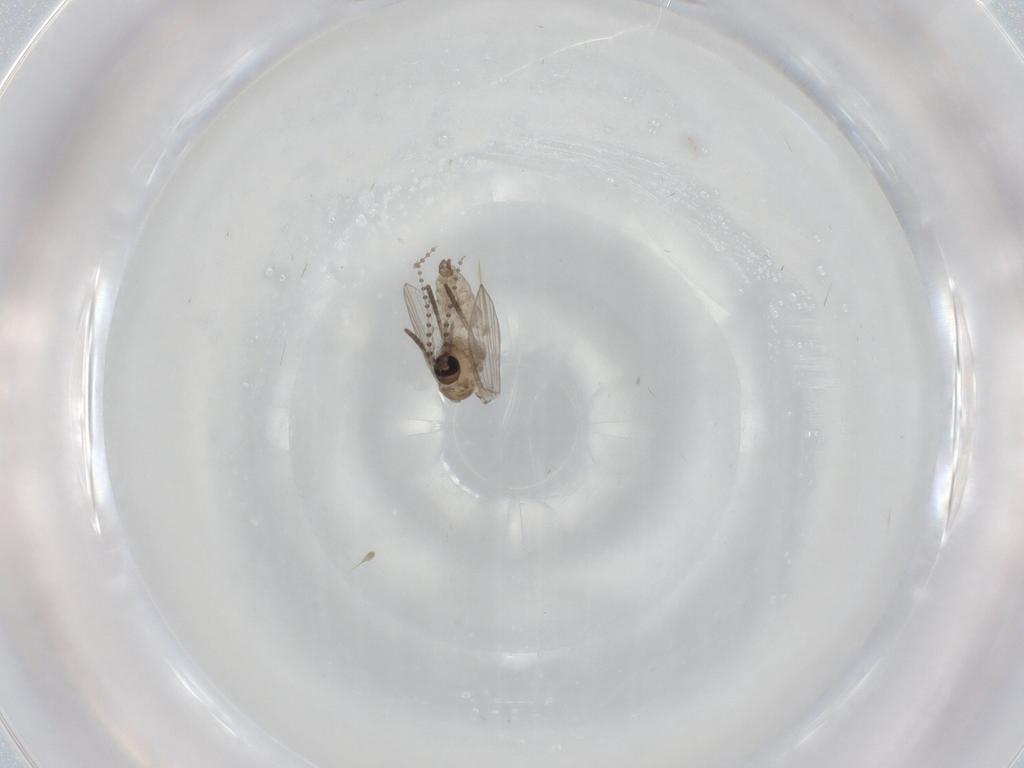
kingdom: Animalia
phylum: Arthropoda
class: Insecta
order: Diptera
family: Psychodidae
